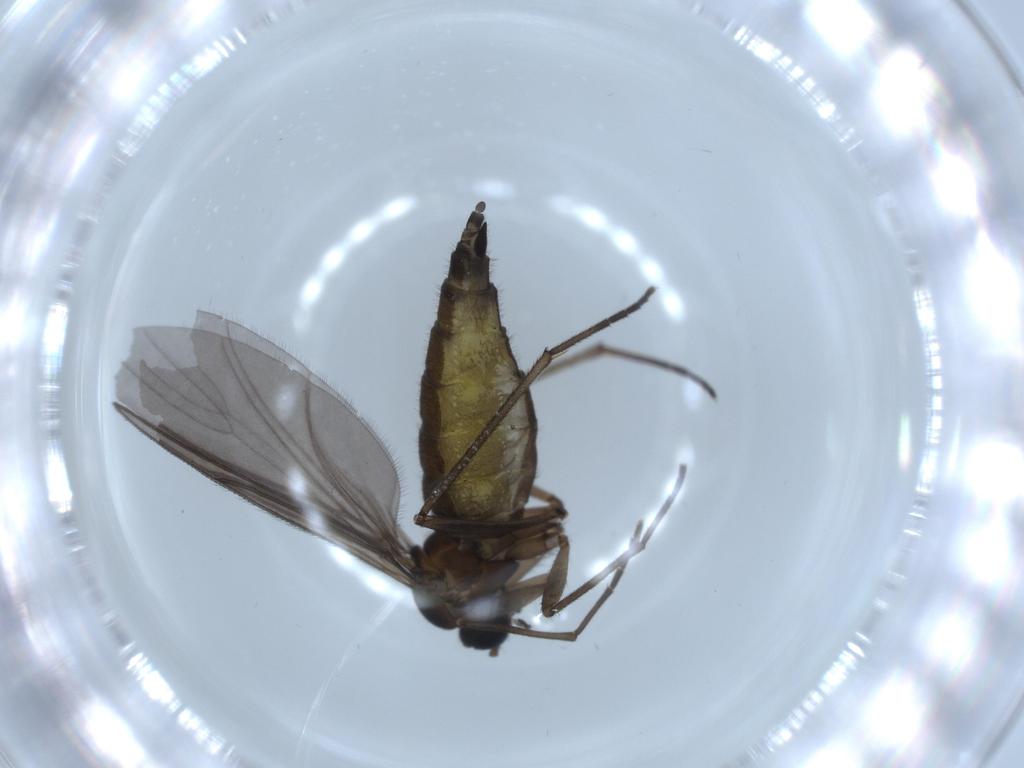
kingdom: Animalia
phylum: Arthropoda
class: Insecta
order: Diptera
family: Sciaridae
